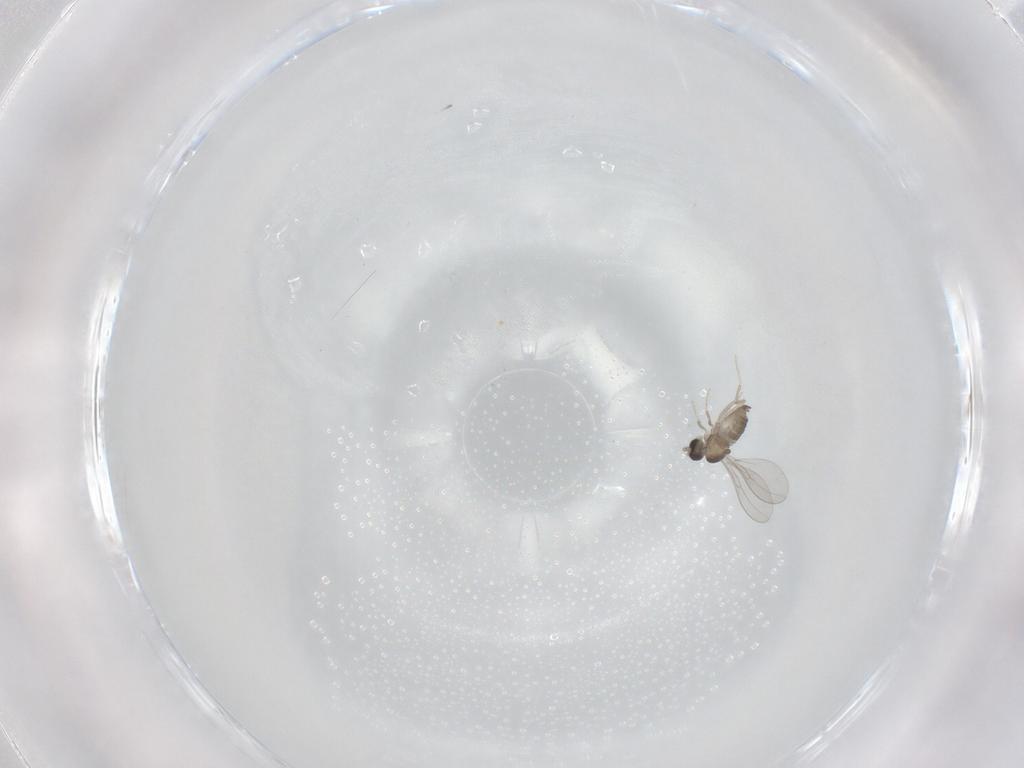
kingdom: Animalia
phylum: Arthropoda
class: Insecta
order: Diptera
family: Cecidomyiidae
